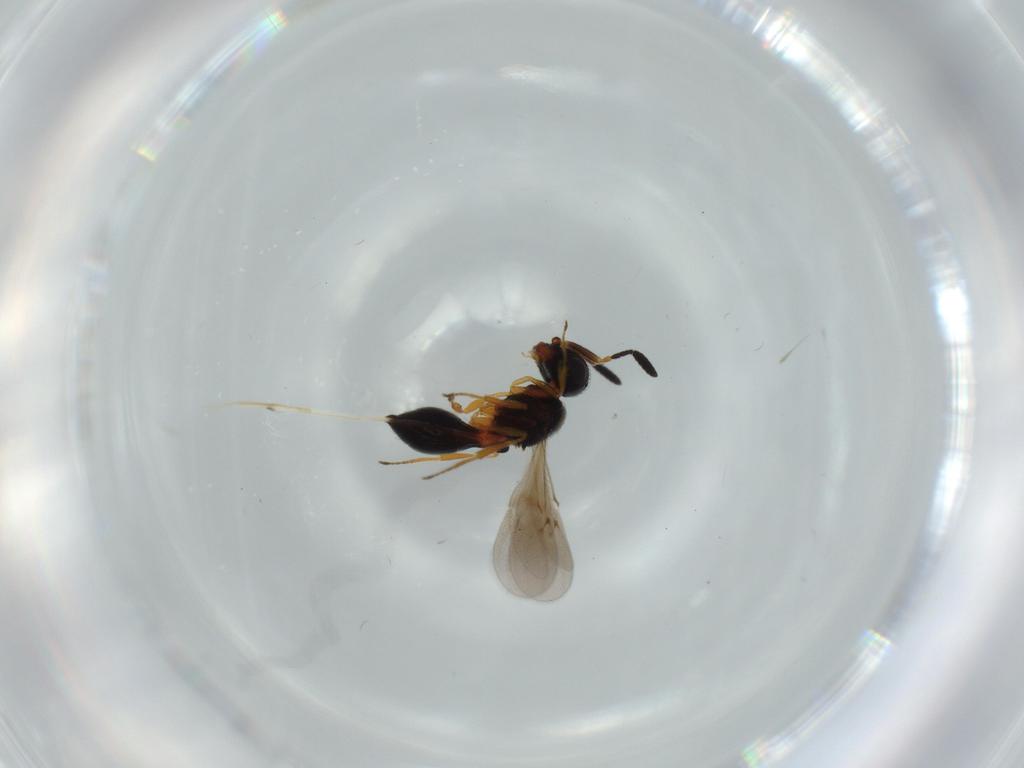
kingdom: Animalia
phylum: Arthropoda
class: Insecta
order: Hymenoptera
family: Scelionidae
